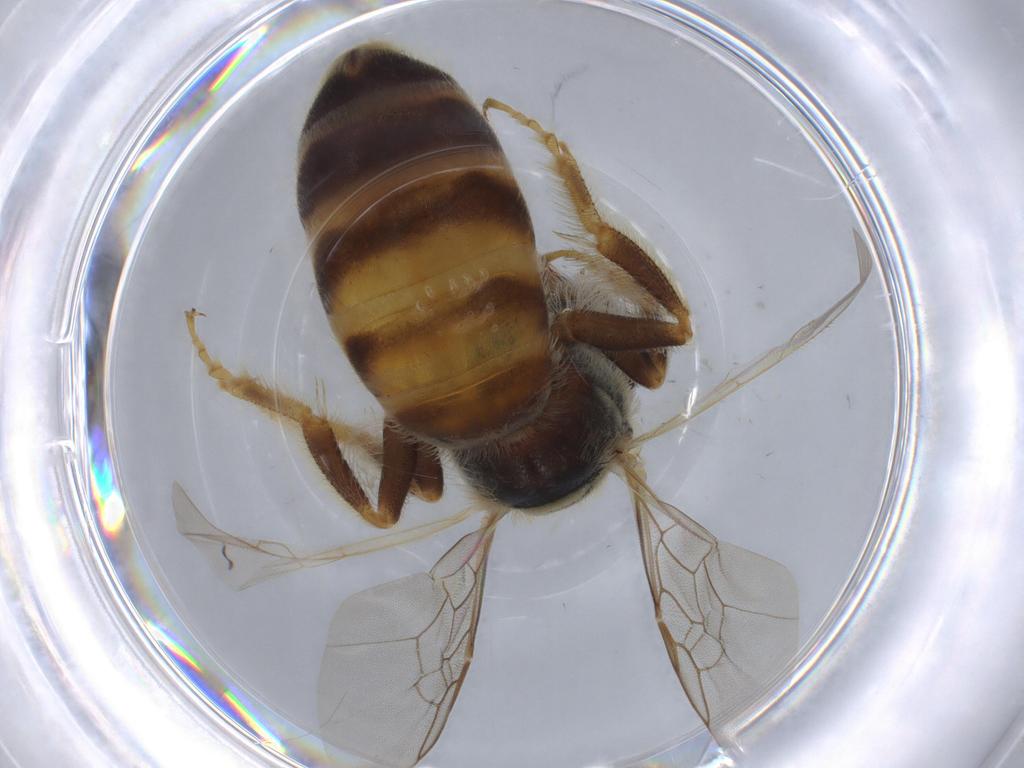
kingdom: Animalia
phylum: Arthropoda
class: Insecta
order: Hymenoptera
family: Halictidae
